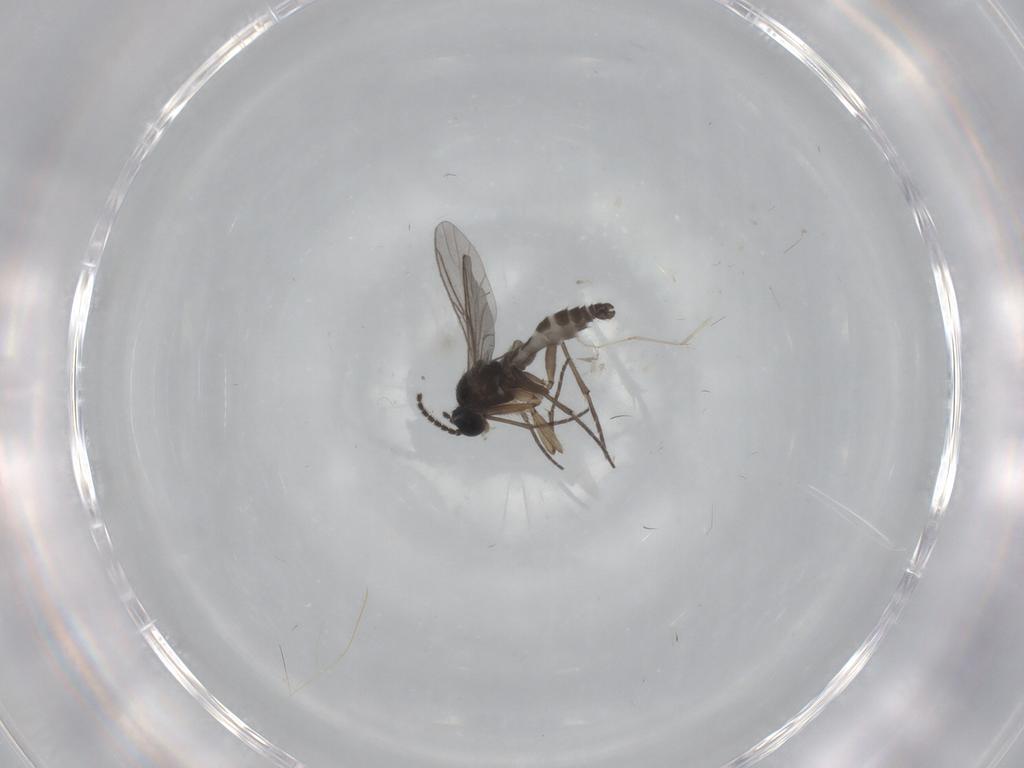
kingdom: Animalia
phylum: Arthropoda
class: Insecta
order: Diptera
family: Sciaridae
